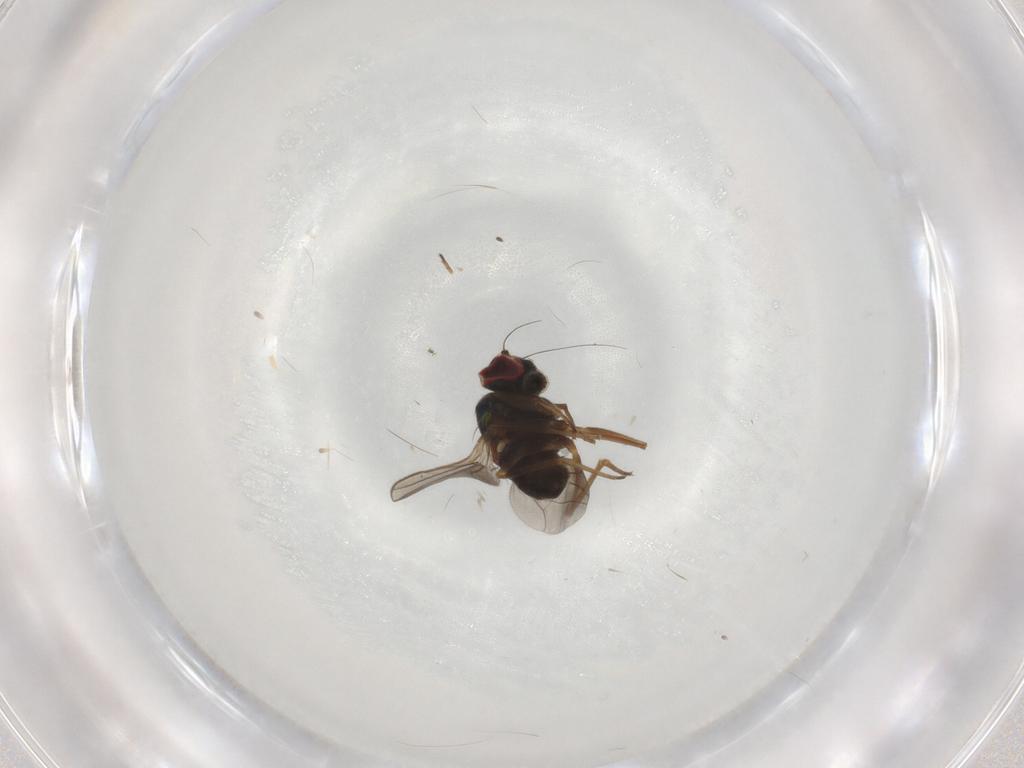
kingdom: Animalia
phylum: Arthropoda
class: Insecta
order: Diptera
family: Dolichopodidae
